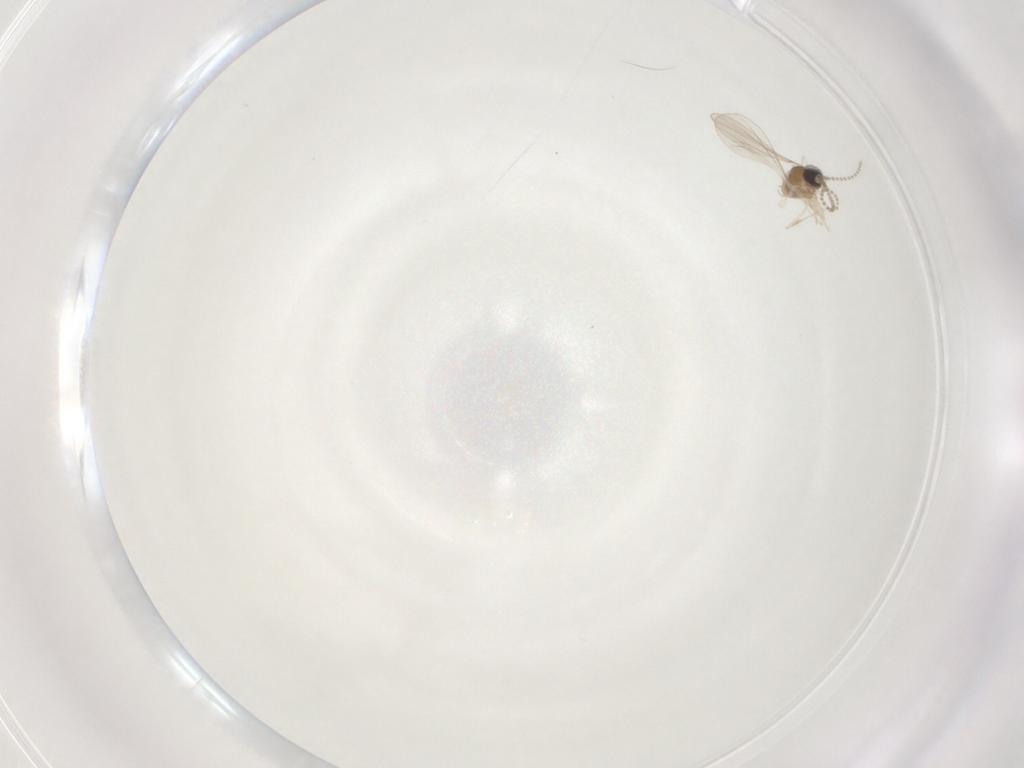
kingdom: Animalia
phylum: Arthropoda
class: Insecta
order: Diptera
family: Cecidomyiidae
